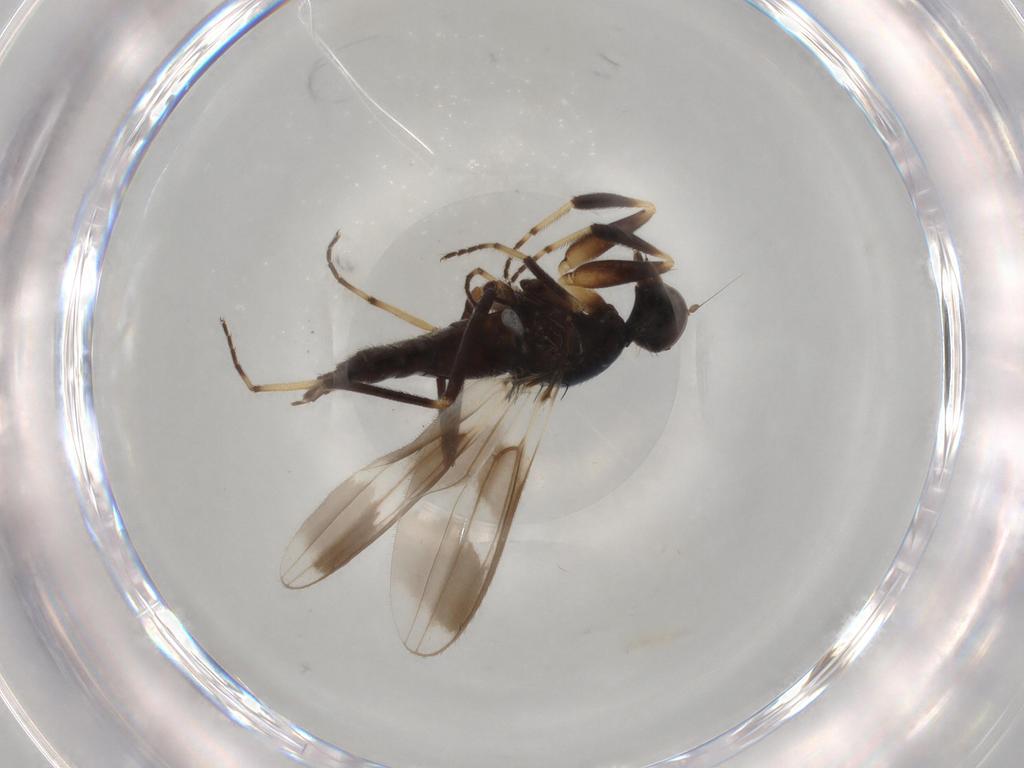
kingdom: Animalia
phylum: Arthropoda
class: Insecta
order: Diptera
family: Hybotidae
